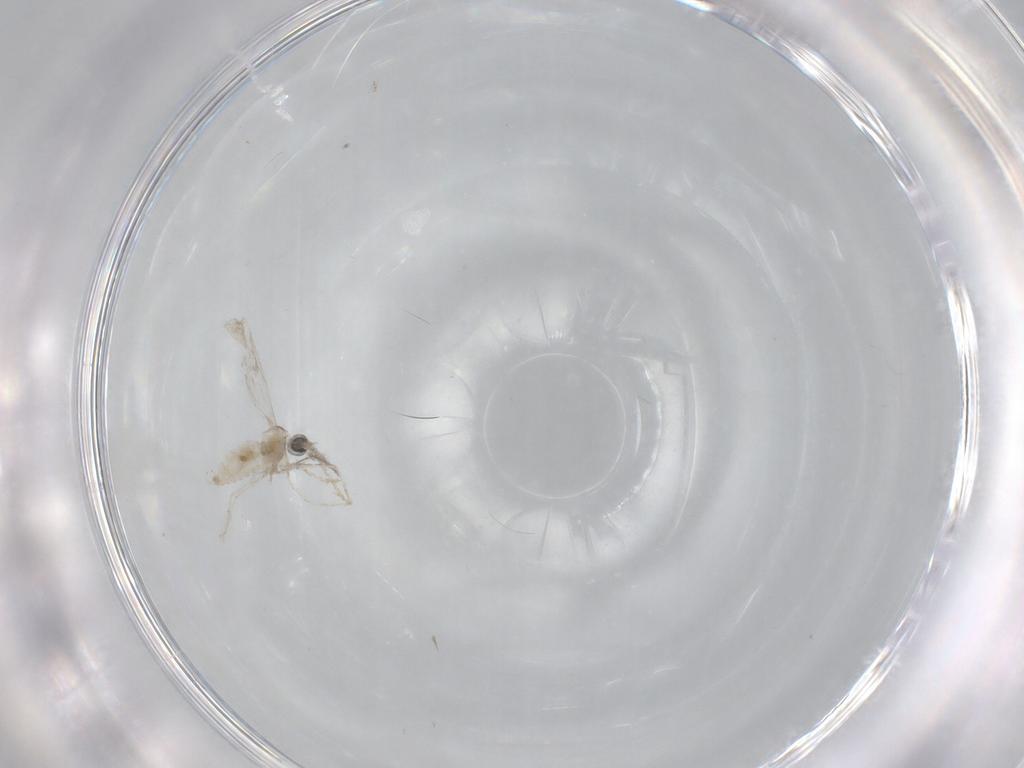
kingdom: Animalia
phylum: Arthropoda
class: Insecta
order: Diptera
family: Cecidomyiidae
